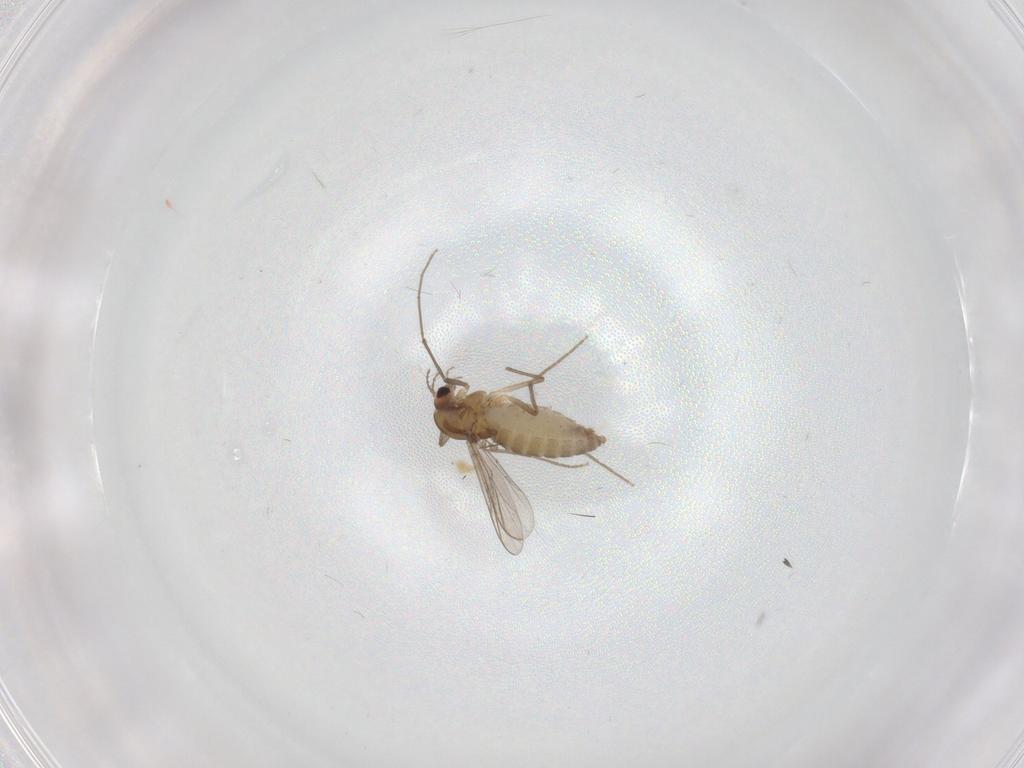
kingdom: Animalia
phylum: Arthropoda
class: Insecta
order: Diptera
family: Chironomidae
